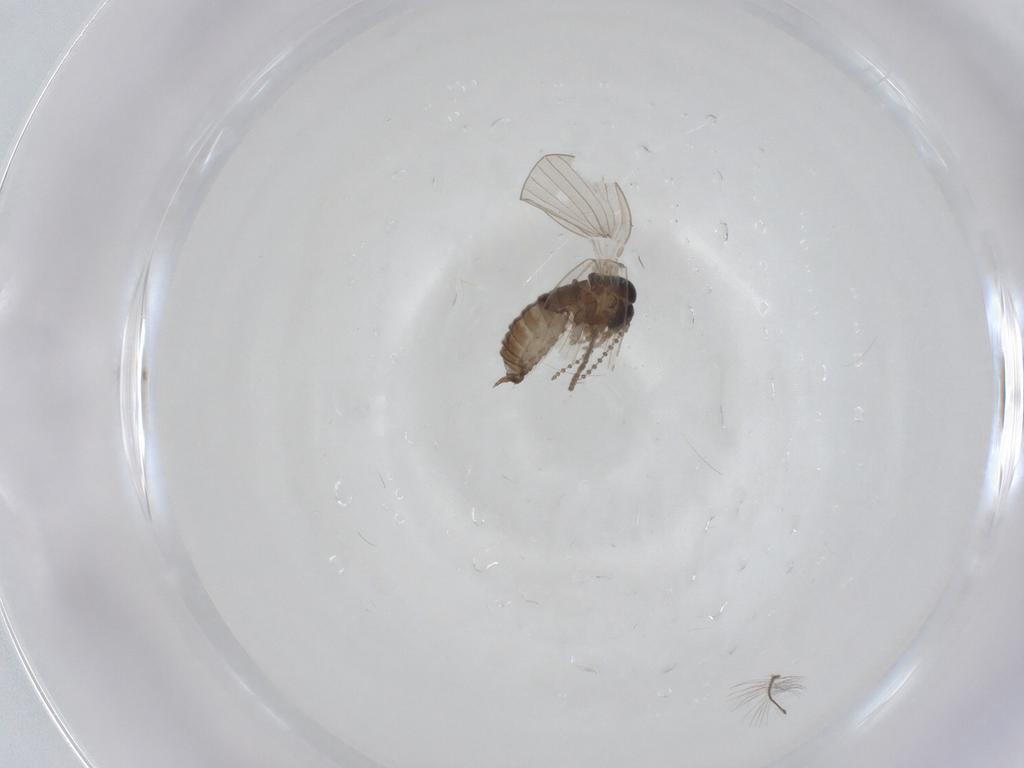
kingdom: Animalia
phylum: Arthropoda
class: Insecta
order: Diptera
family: Psychodidae
